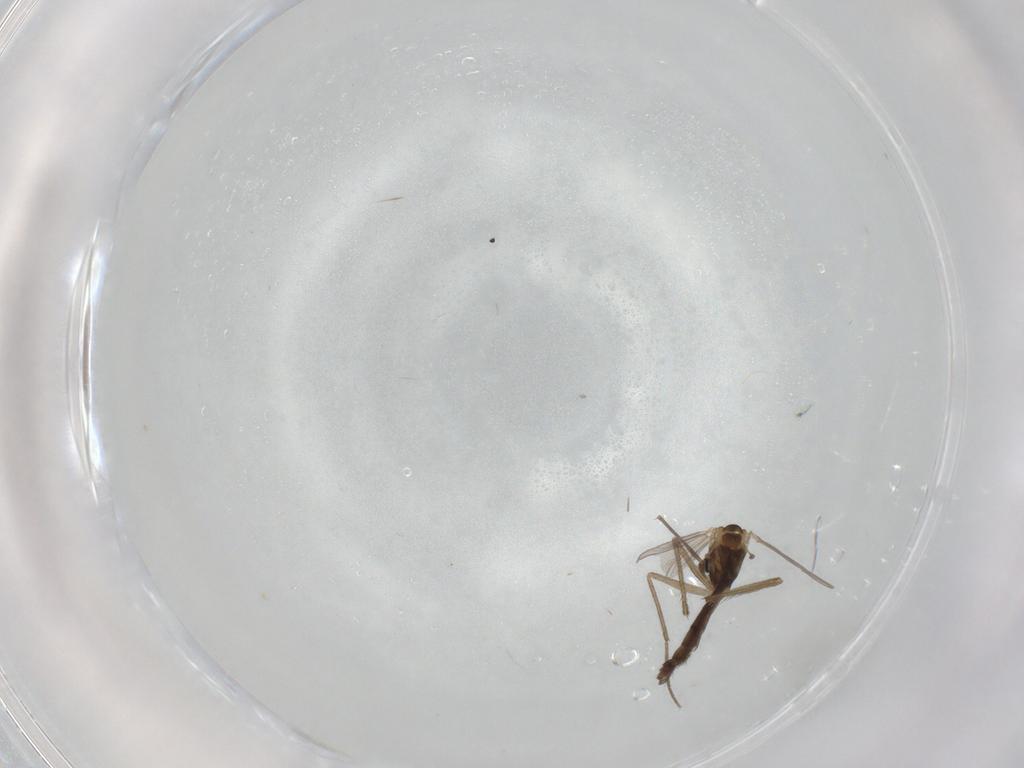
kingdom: Animalia
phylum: Arthropoda
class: Insecta
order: Diptera
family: Chironomidae
